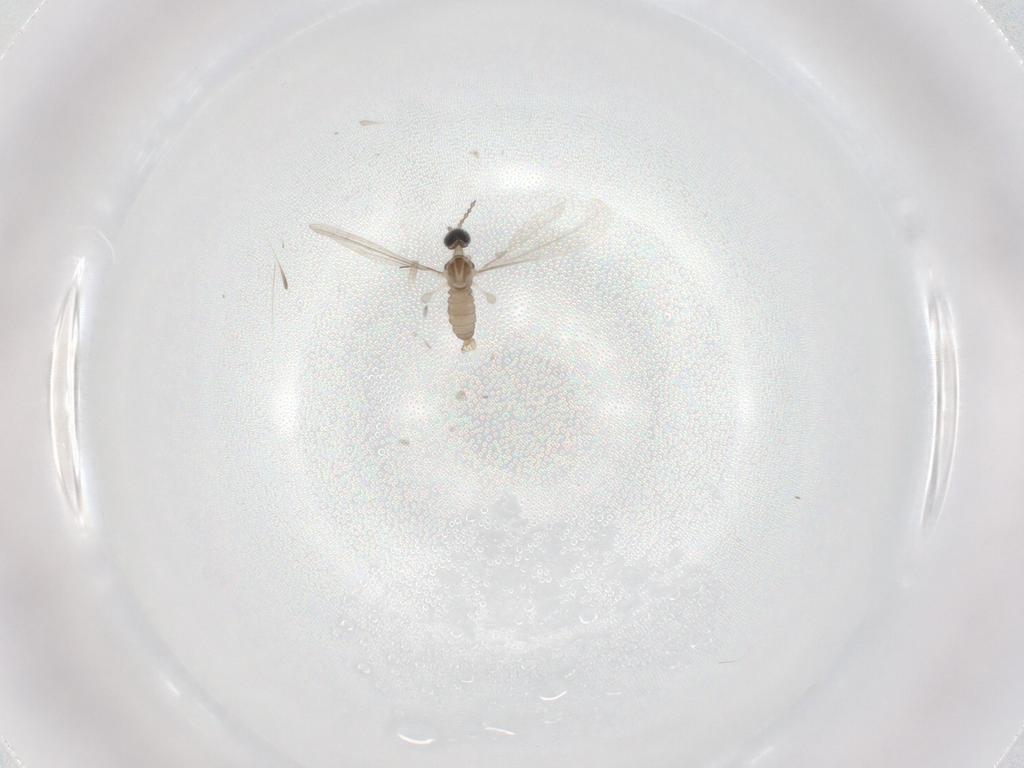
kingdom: Animalia
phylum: Arthropoda
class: Insecta
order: Diptera
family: Cecidomyiidae
